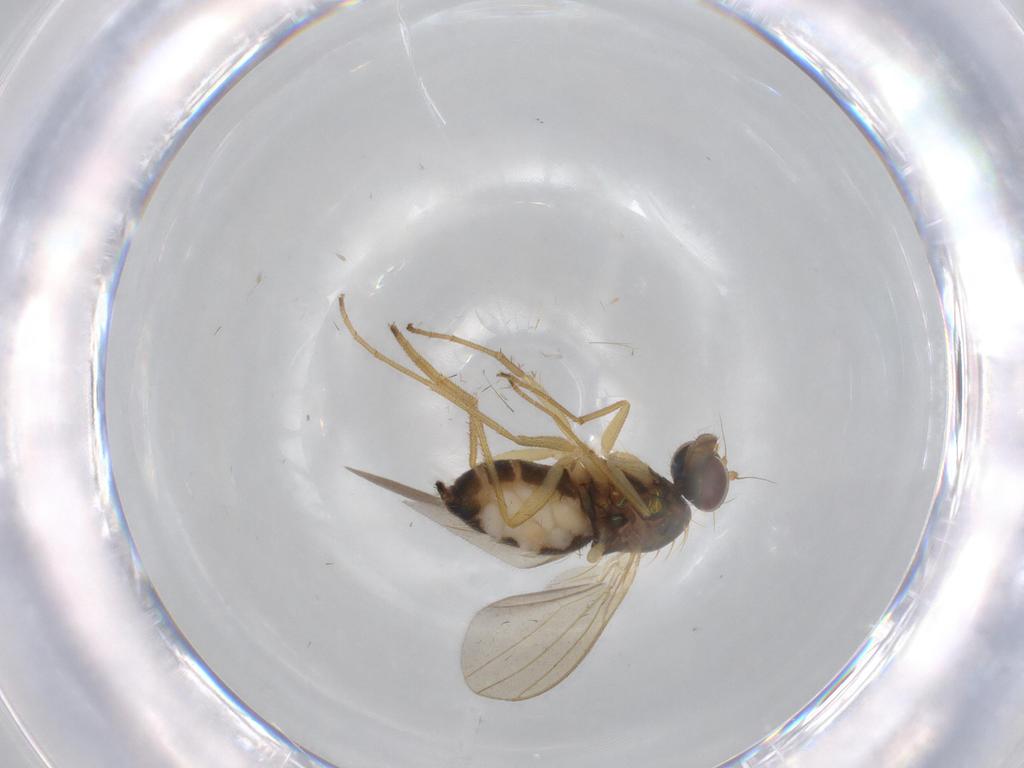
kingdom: Animalia
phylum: Arthropoda
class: Insecta
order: Diptera
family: Dolichopodidae
